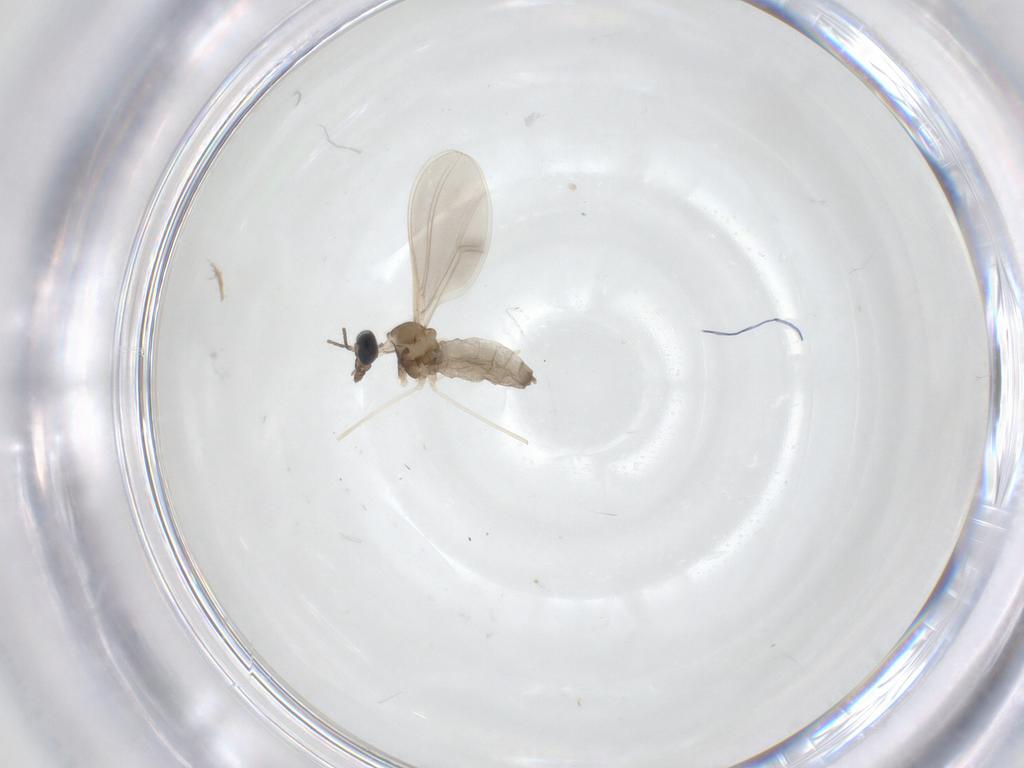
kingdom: Animalia
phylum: Arthropoda
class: Insecta
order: Diptera
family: Cecidomyiidae
